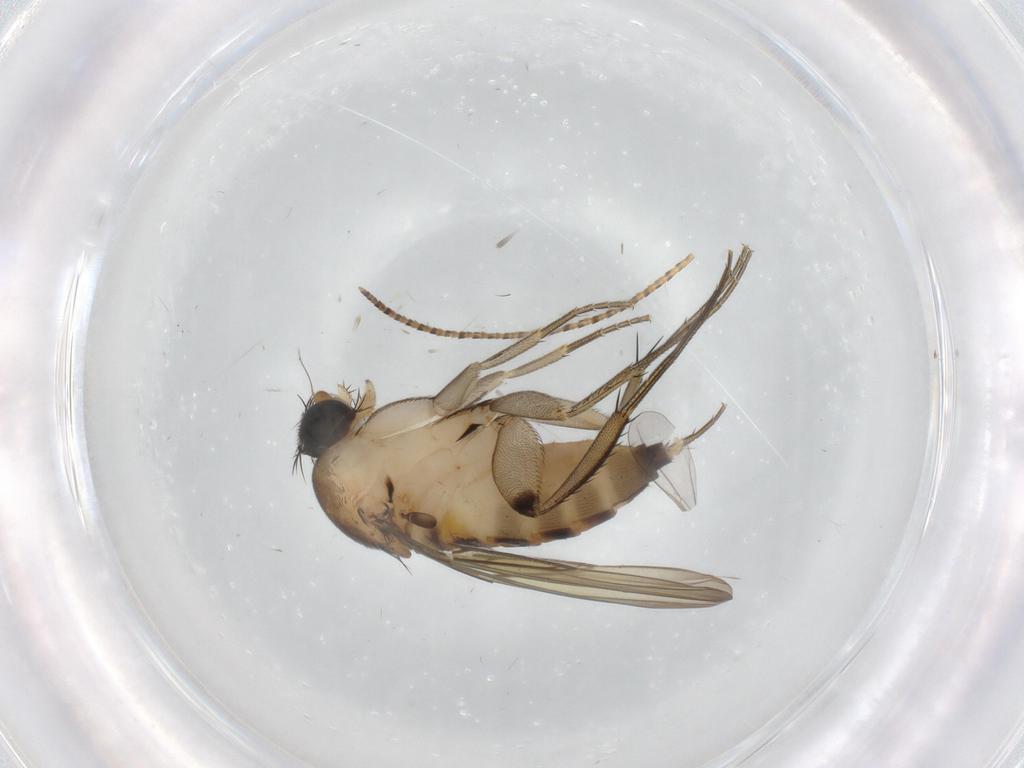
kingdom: Animalia
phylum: Arthropoda
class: Insecta
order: Diptera
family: Phoridae
